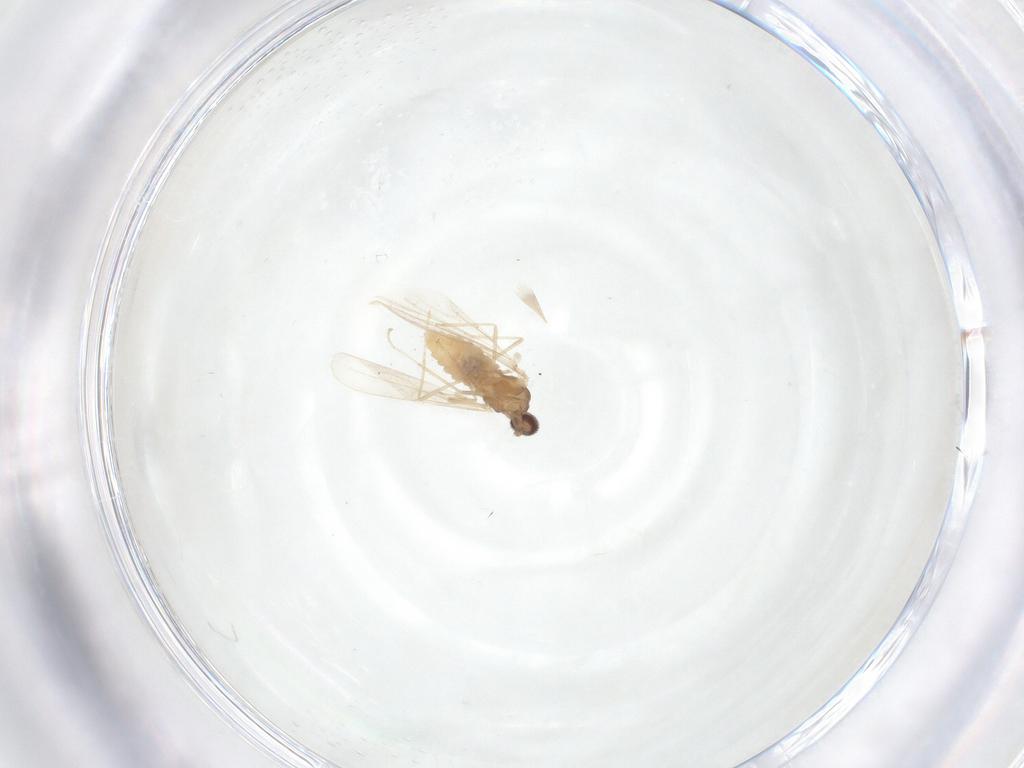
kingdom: Animalia
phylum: Arthropoda
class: Insecta
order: Diptera
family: Cecidomyiidae
